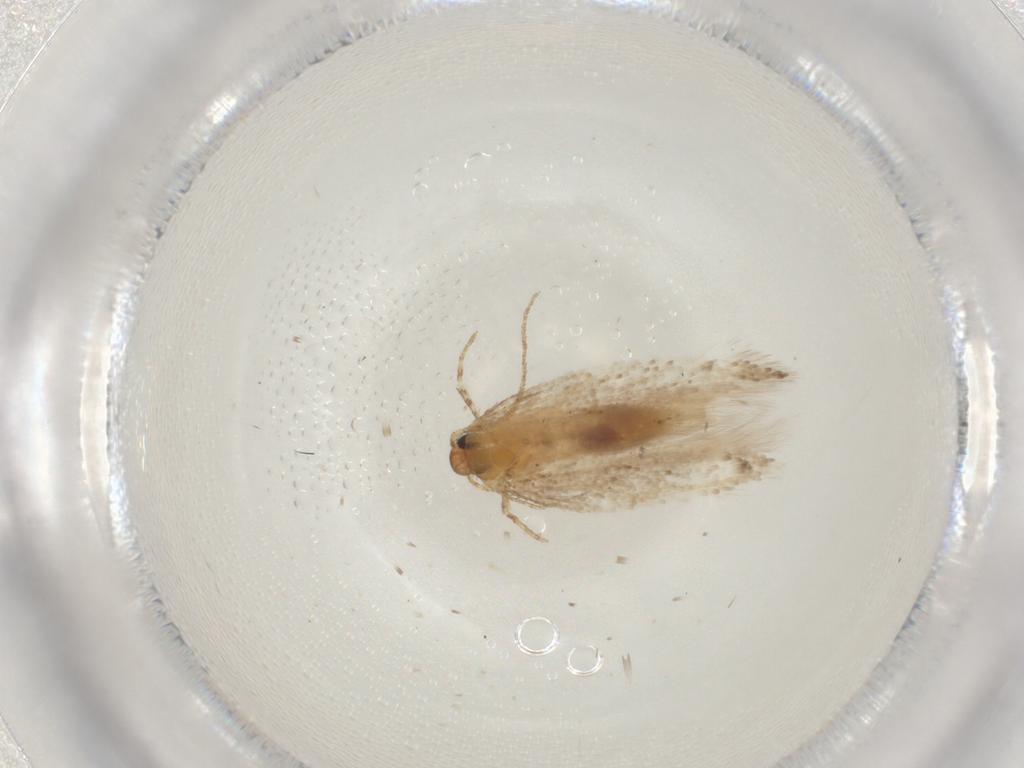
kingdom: Animalia
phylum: Arthropoda
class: Insecta
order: Lepidoptera
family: Gelechiidae
